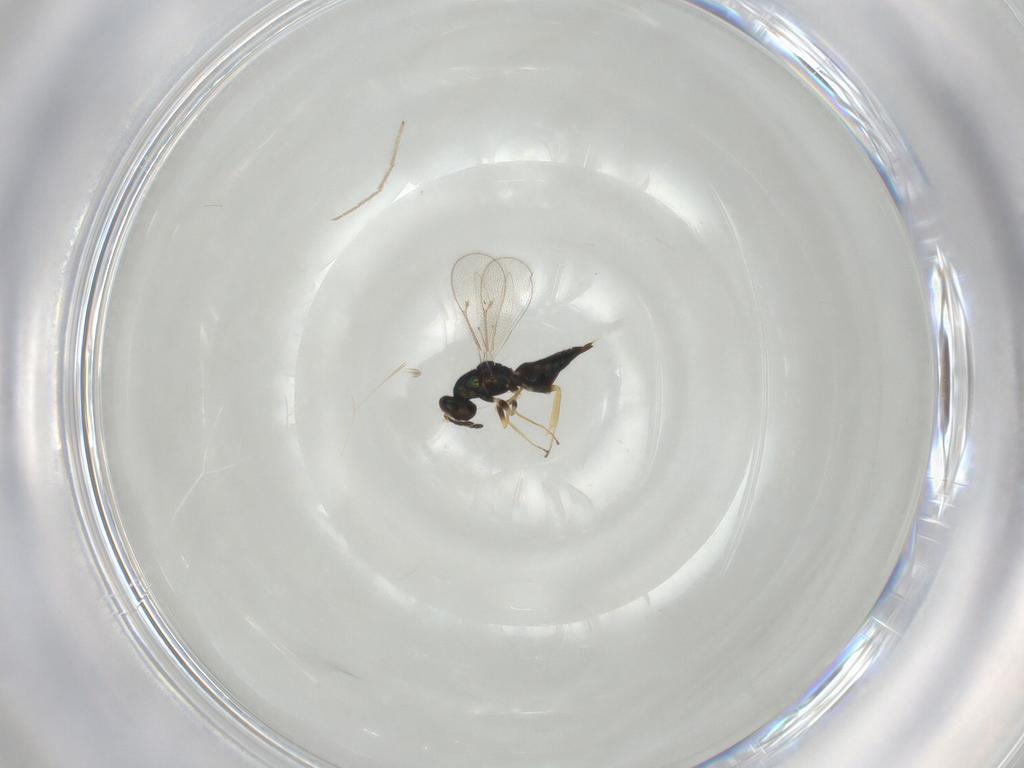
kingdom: Animalia
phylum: Arthropoda
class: Insecta
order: Hymenoptera
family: Eulophidae
